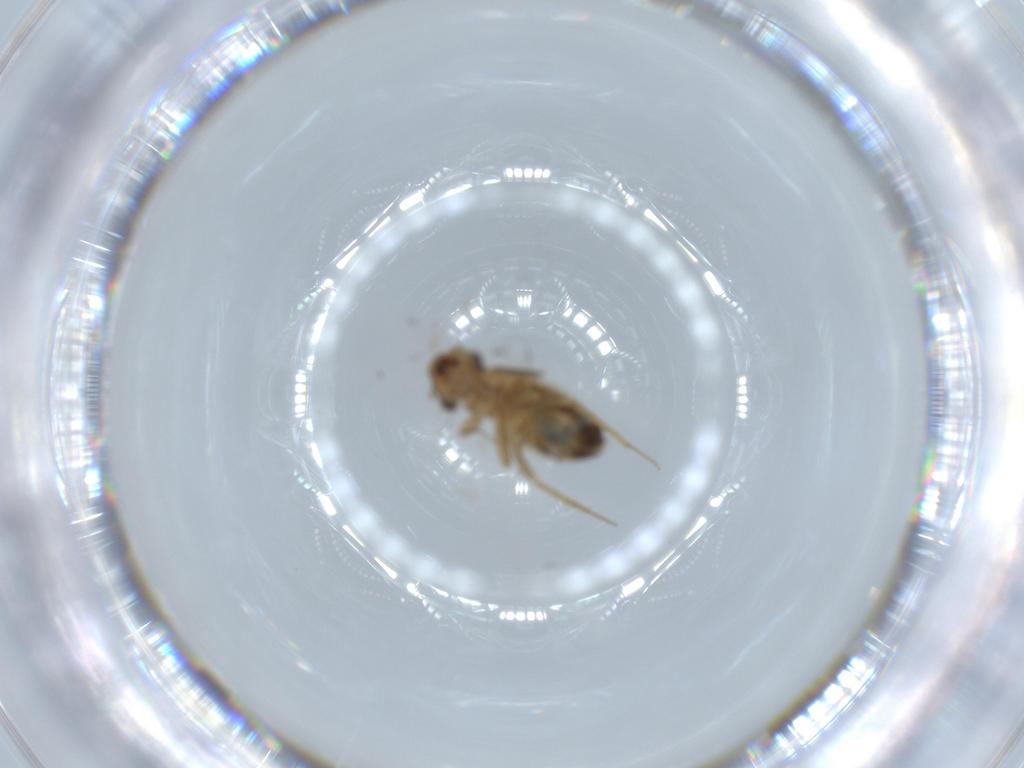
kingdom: Animalia
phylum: Arthropoda
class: Insecta
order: Psocodea
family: Lepidopsocidae
